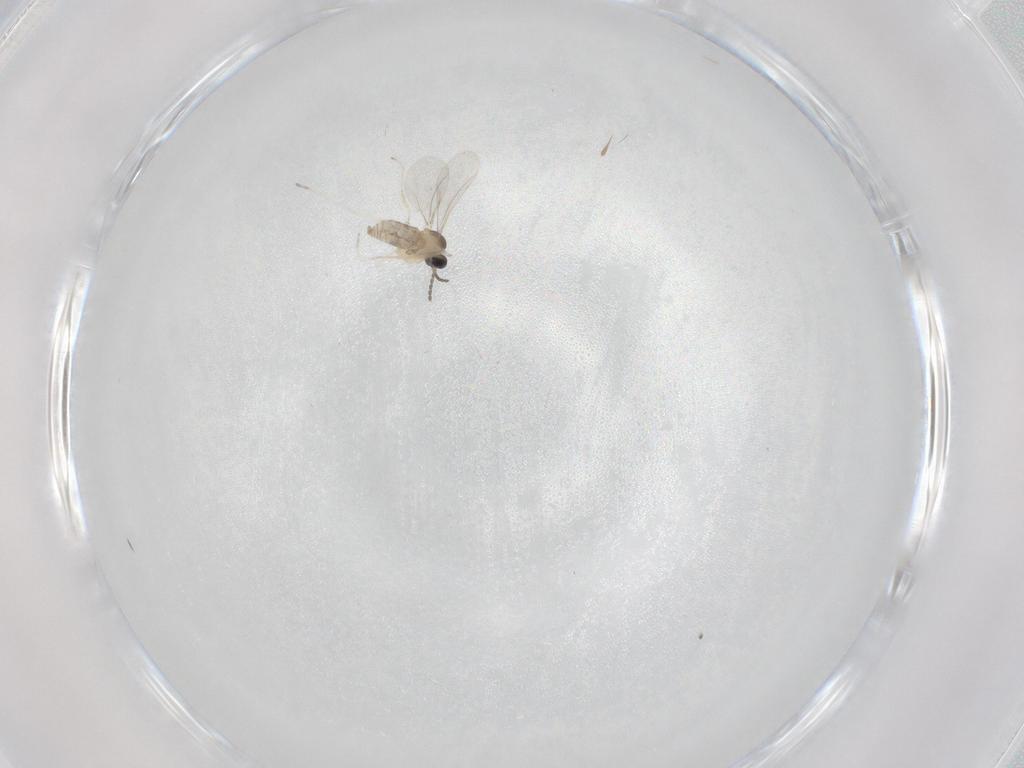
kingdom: Animalia
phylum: Arthropoda
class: Insecta
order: Diptera
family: Cecidomyiidae
